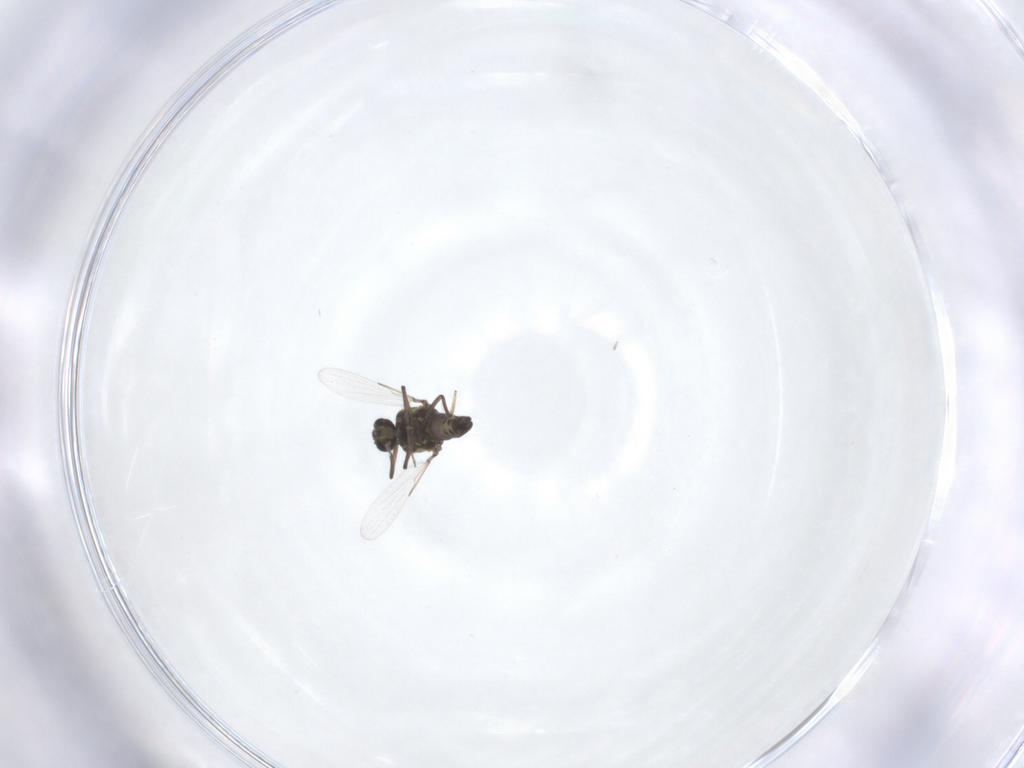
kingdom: Animalia
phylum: Arthropoda
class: Insecta
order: Diptera
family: Ceratopogonidae
